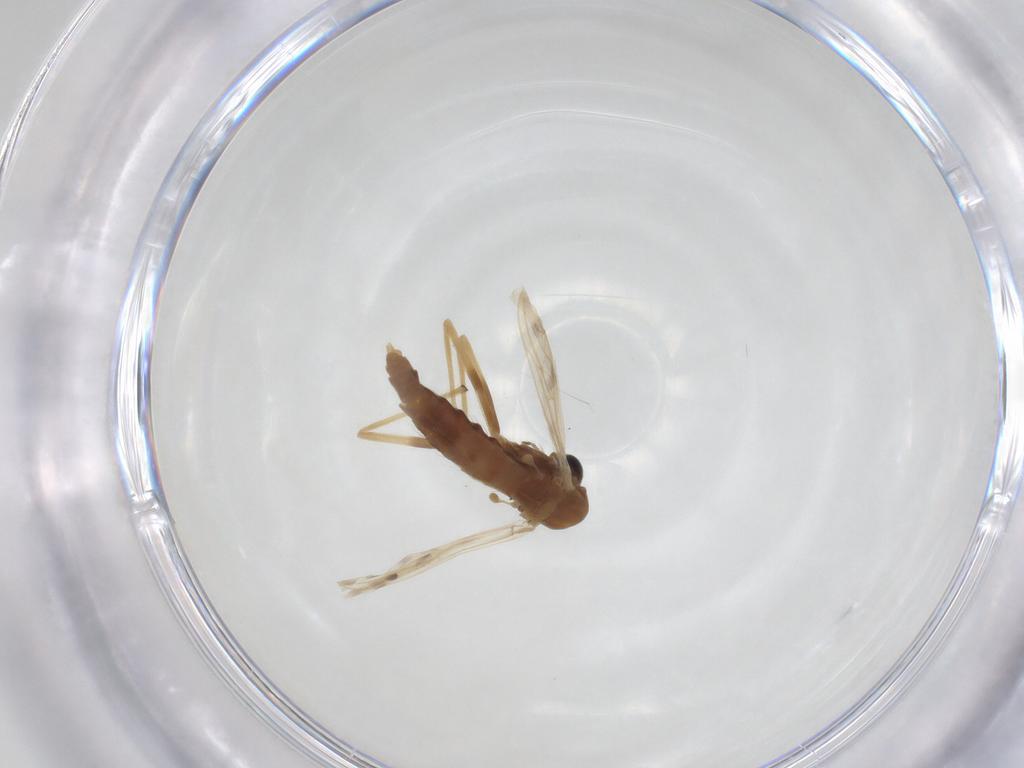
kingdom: Animalia
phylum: Arthropoda
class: Insecta
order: Diptera
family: Chironomidae
